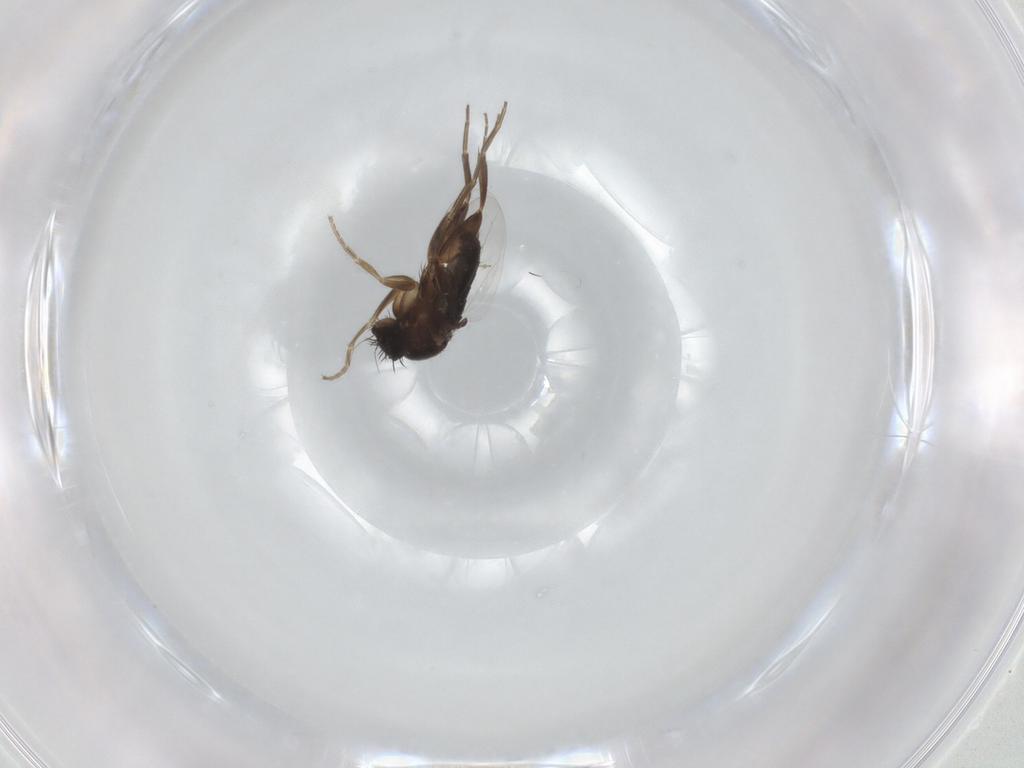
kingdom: Animalia
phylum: Arthropoda
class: Insecta
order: Diptera
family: Phoridae
